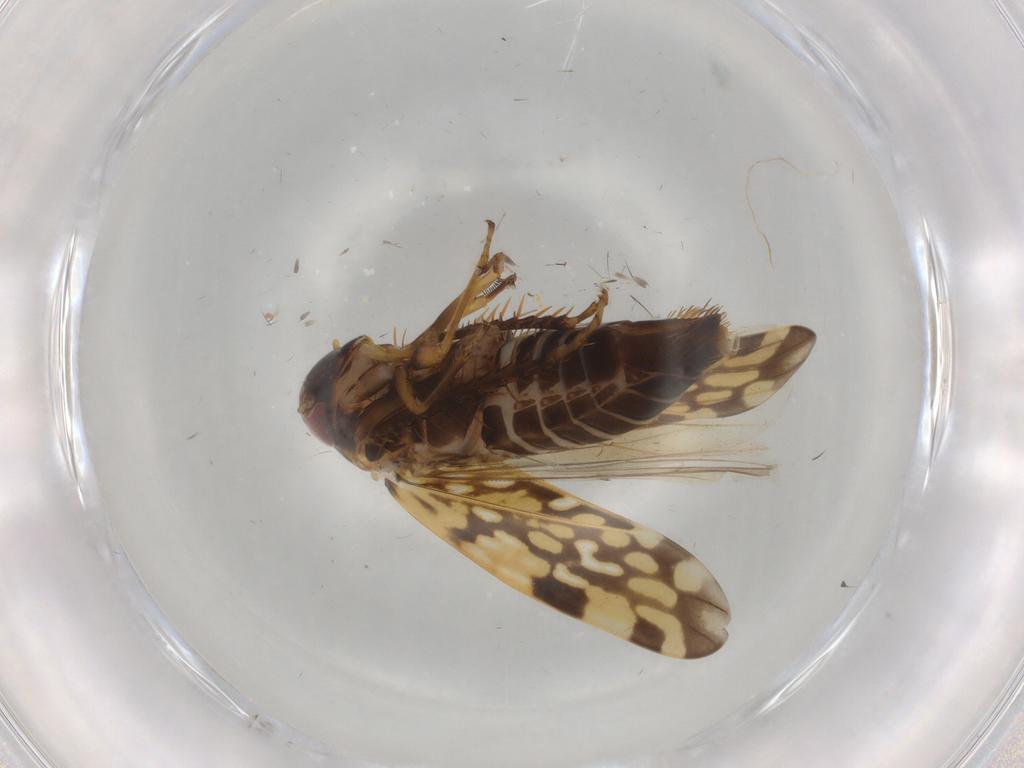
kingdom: Animalia
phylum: Arthropoda
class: Insecta
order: Hemiptera
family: Cicadellidae
